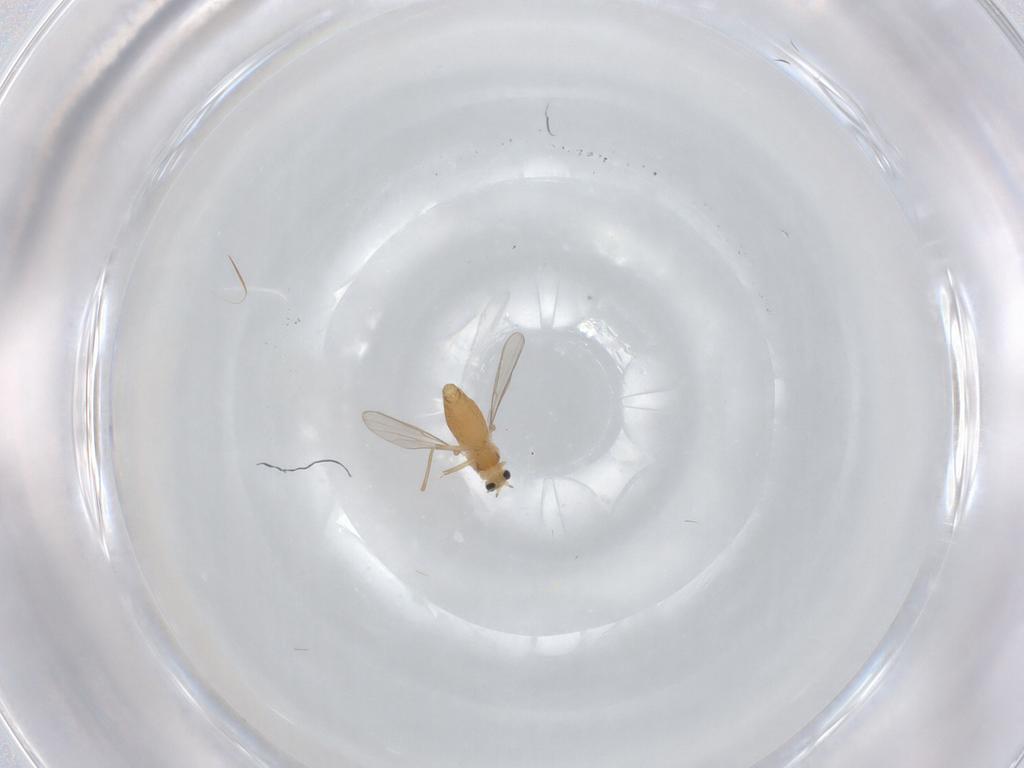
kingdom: Animalia
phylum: Arthropoda
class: Insecta
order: Diptera
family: Chironomidae
